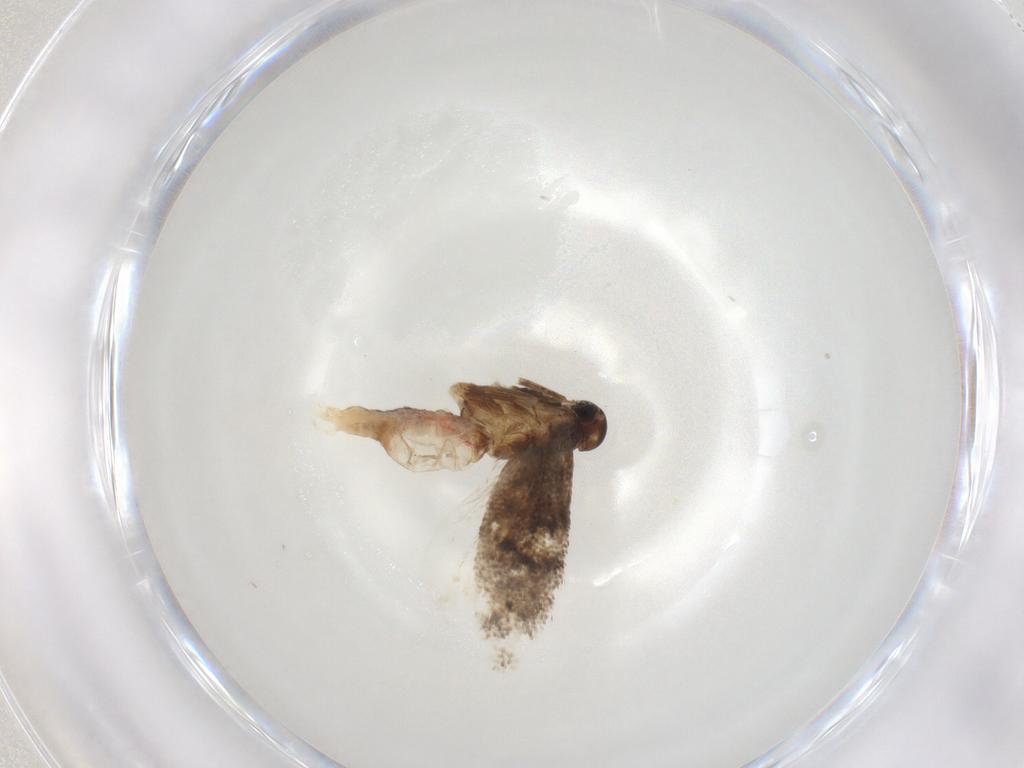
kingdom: Animalia
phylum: Arthropoda
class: Insecta
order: Lepidoptera
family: Gelechiidae
